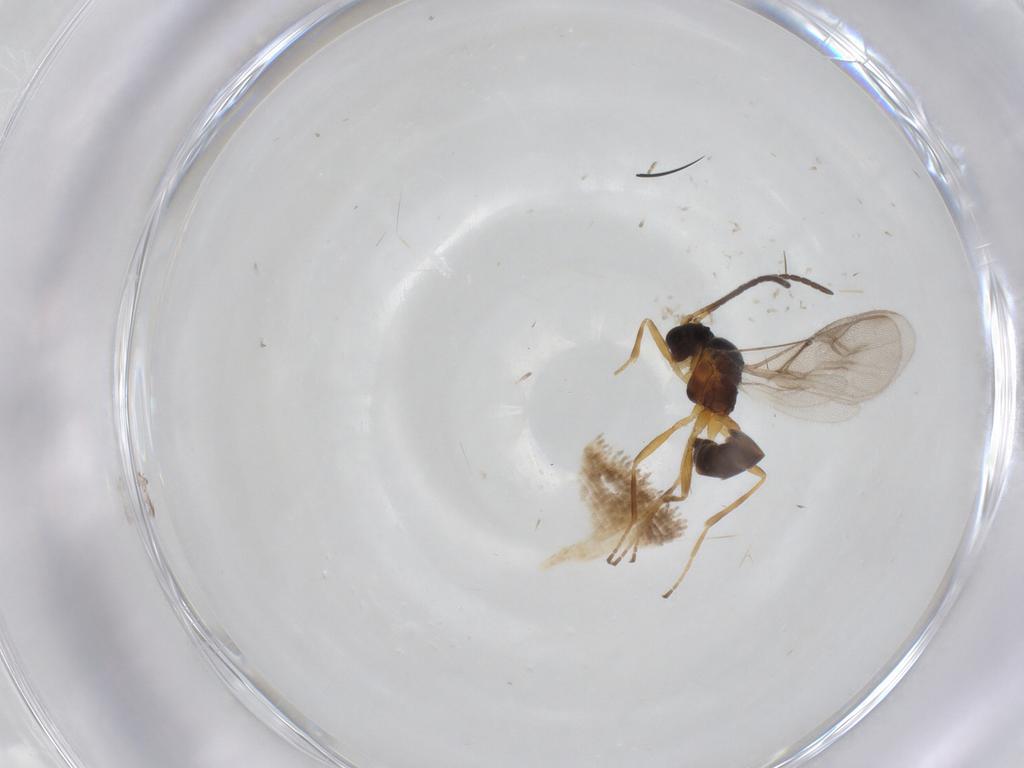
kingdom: Animalia
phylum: Arthropoda
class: Insecta
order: Hymenoptera
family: Braconidae
